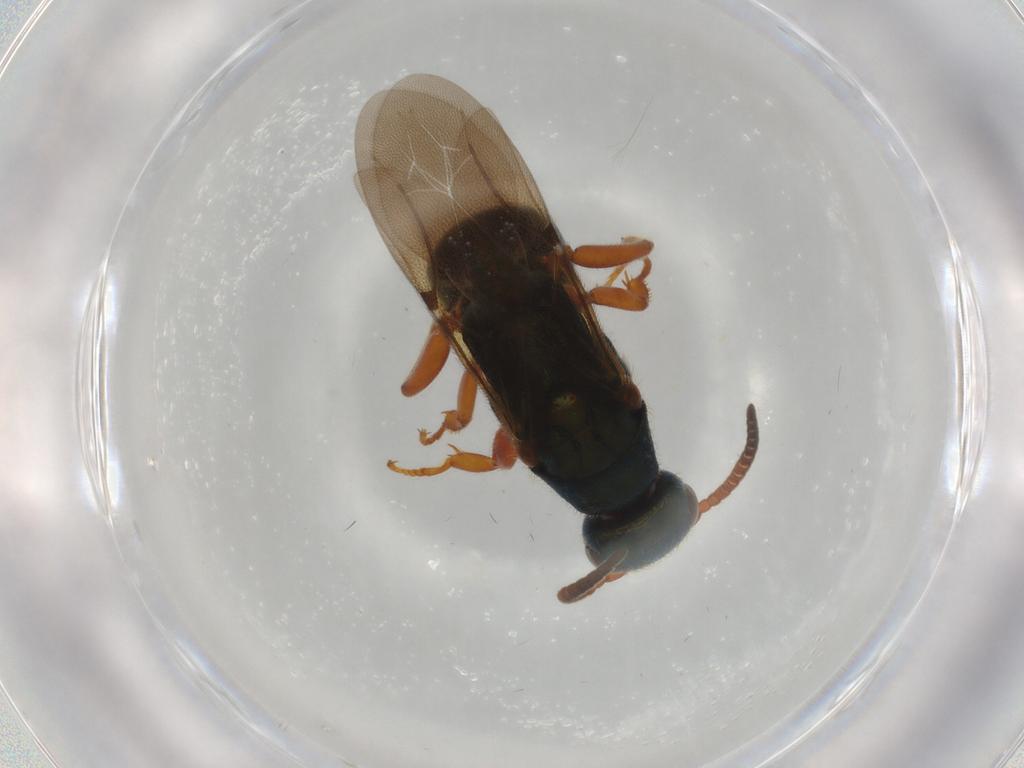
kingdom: Animalia
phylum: Arthropoda
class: Insecta
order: Hymenoptera
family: Bethylidae
